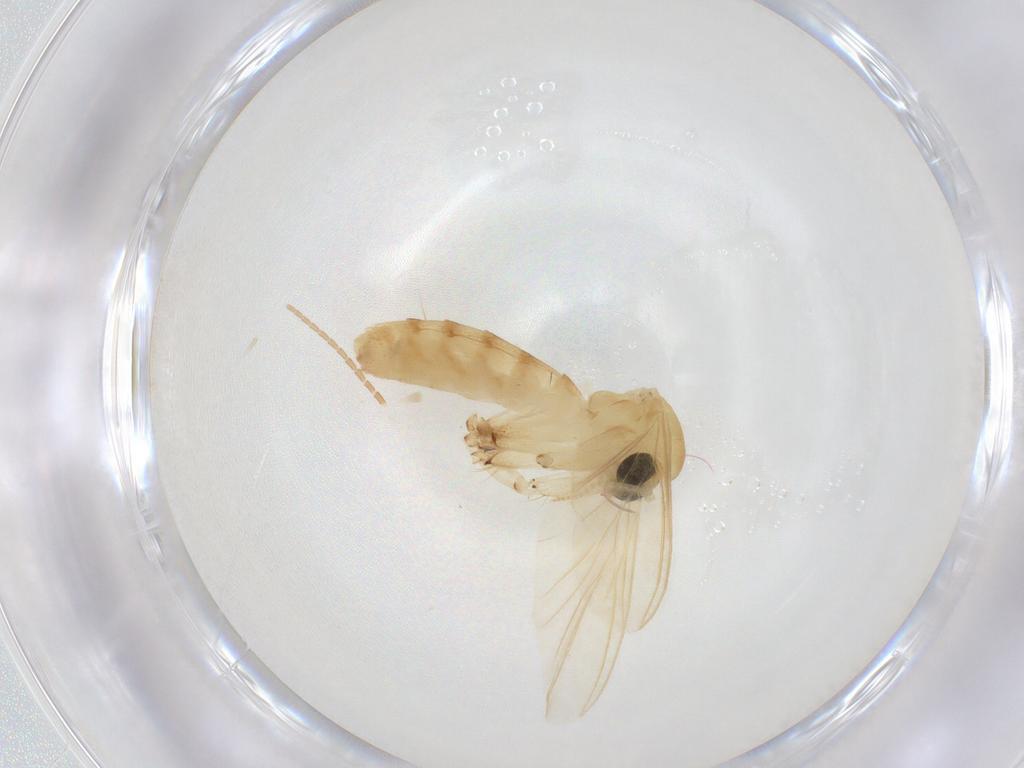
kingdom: Animalia
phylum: Arthropoda
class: Insecta
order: Diptera
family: Mycetophilidae
